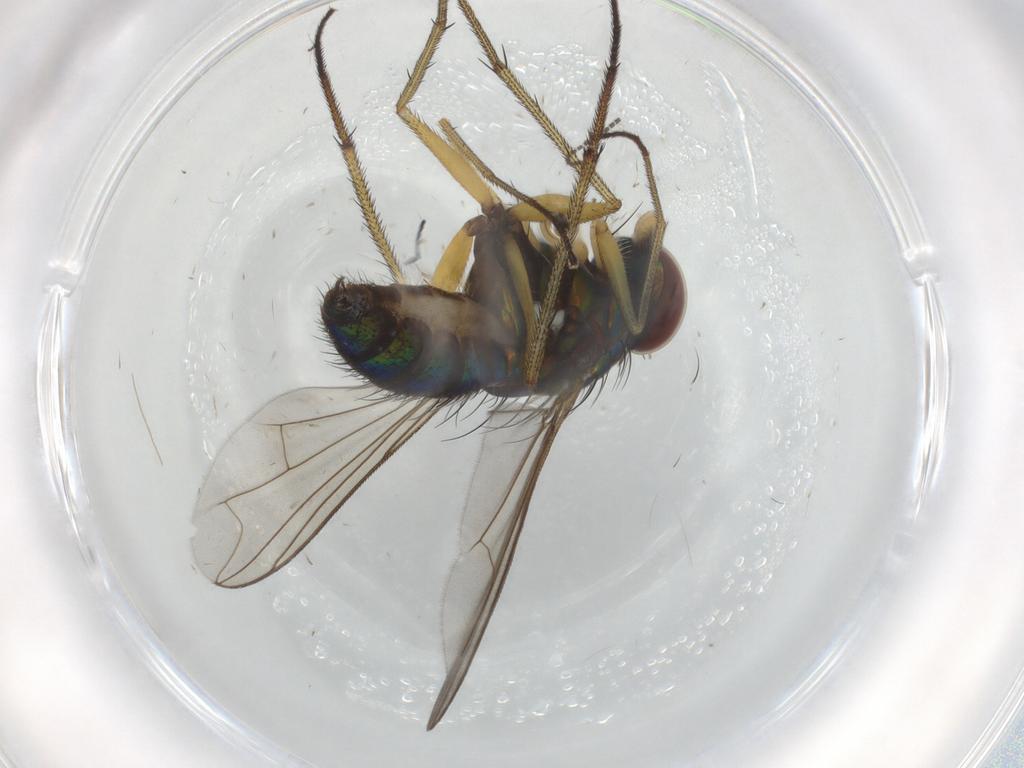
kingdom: Animalia
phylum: Arthropoda
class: Insecta
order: Diptera
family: Dolichopodidae
